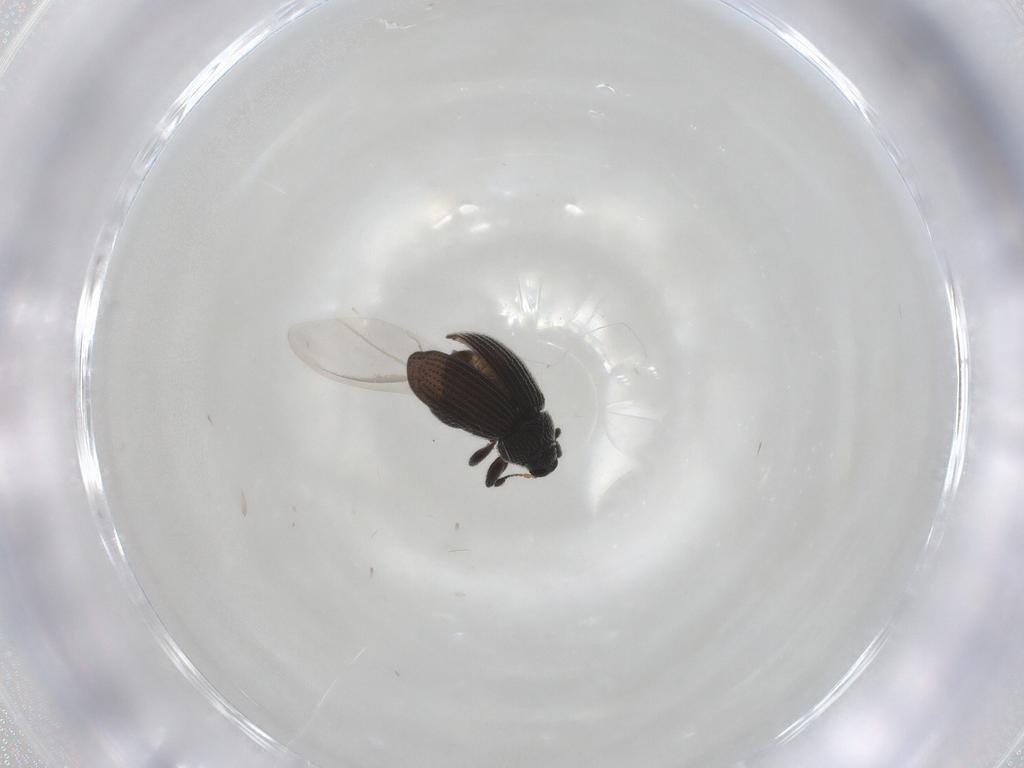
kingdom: Animalia
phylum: Arthropoda
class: Insecta
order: Coleoptera
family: Curculionidae
